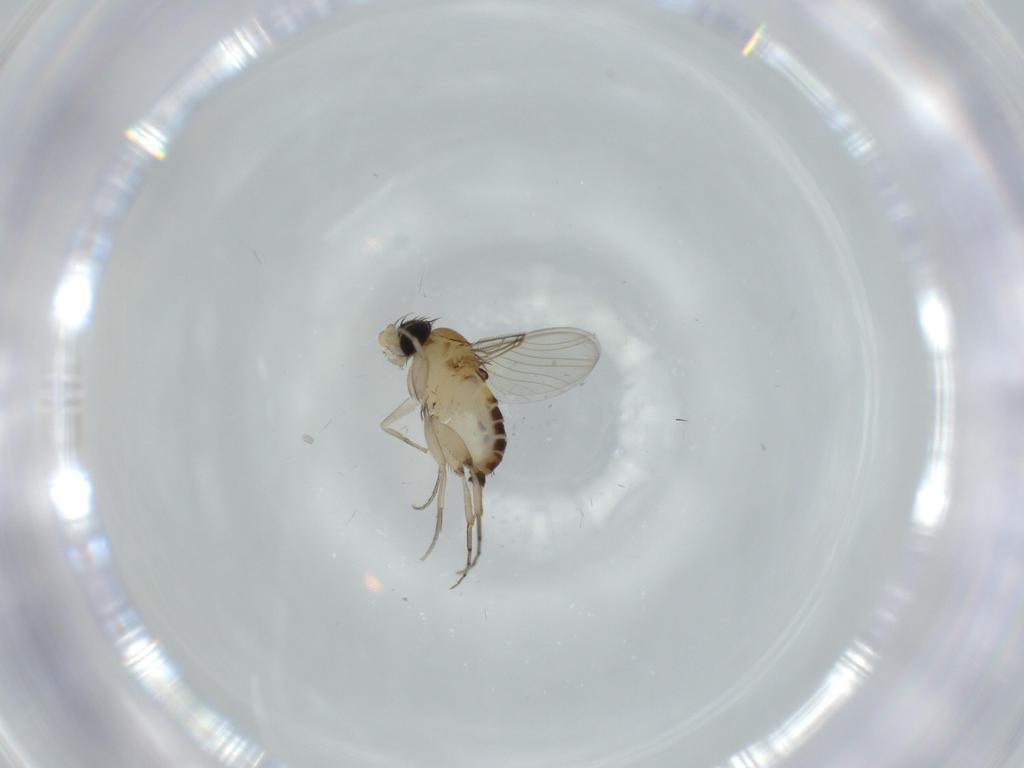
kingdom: Animalia
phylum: Arthropoda
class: Insecta
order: Diptera
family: Phoridae
